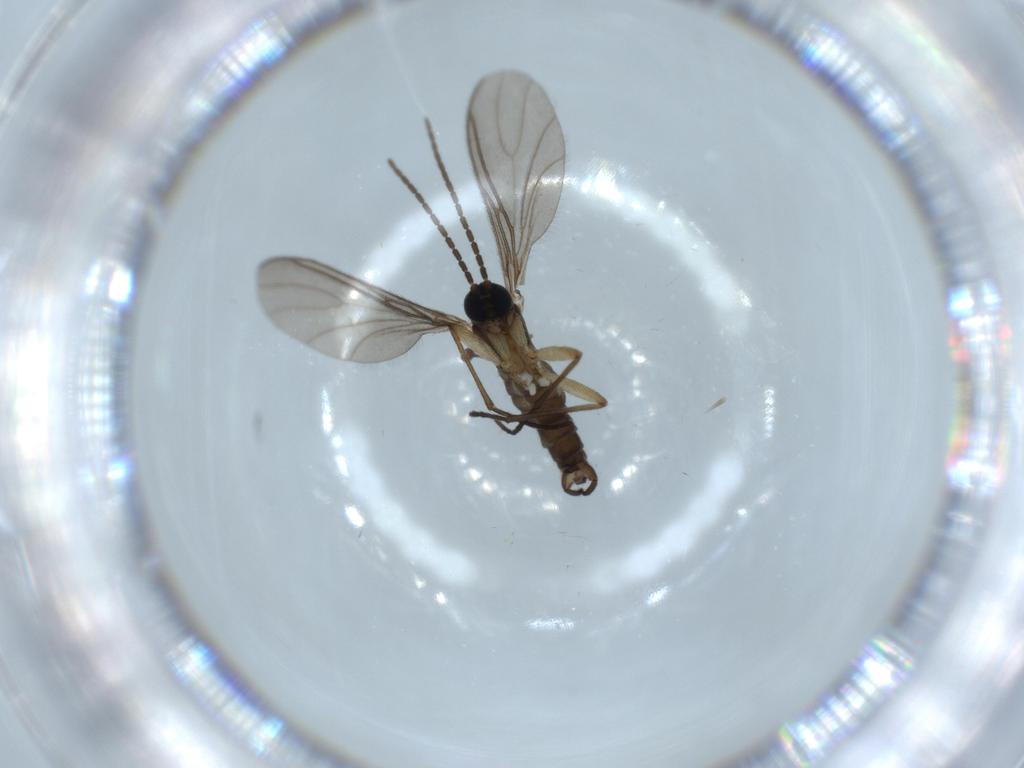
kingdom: Animalia
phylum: Arthropoda
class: Insecta
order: Diptera
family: Sciaridae
